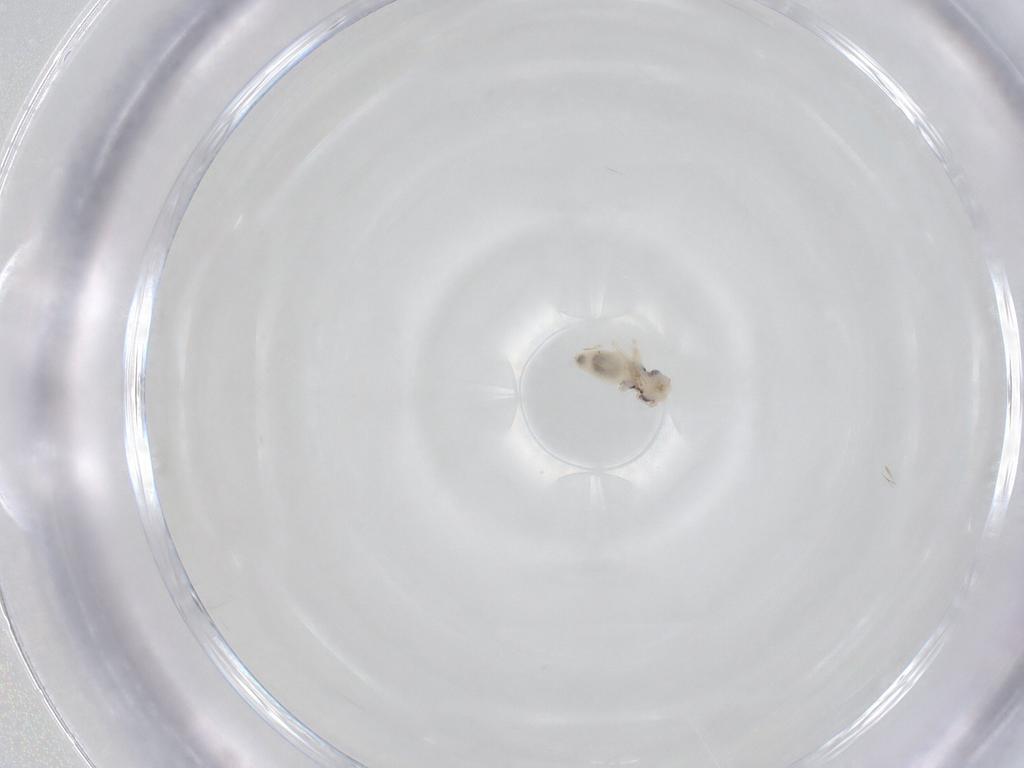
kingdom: Animalia
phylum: Arthropoda
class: Insecta
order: Psocodea
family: Caeciliusidae
